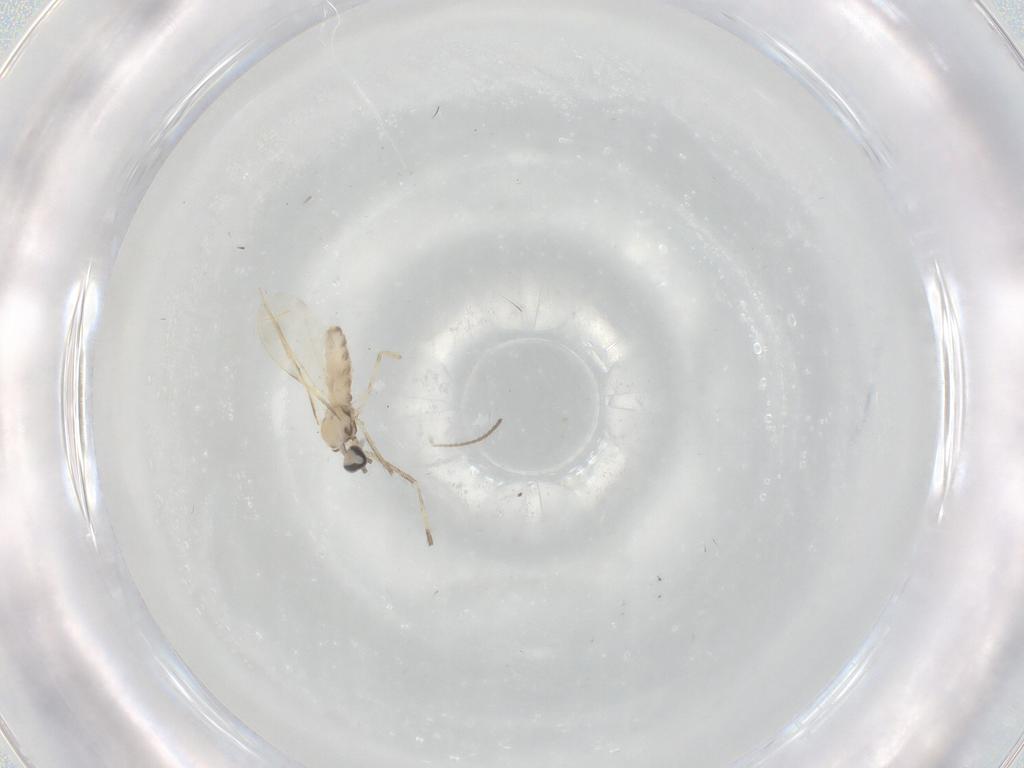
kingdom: Animalia
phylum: Arthropoda
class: Insecta
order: Diptera
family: Cecidomyiidae
